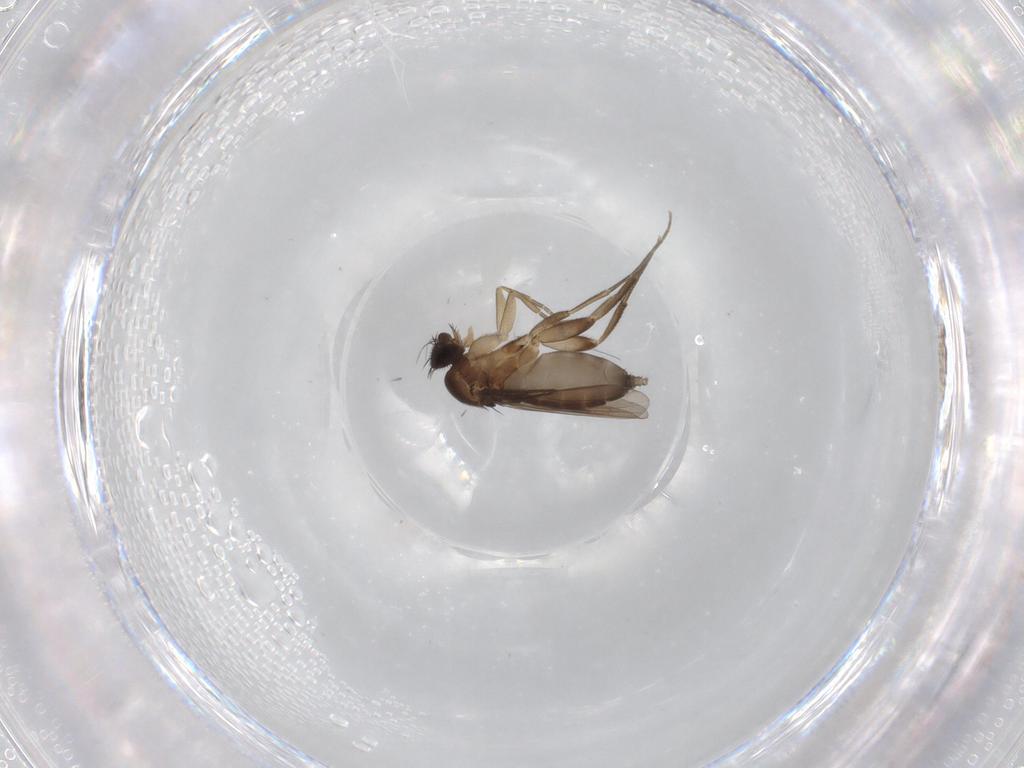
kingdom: Animalia
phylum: Arthropoda
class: Insecta
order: Diptera
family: Phoridae
